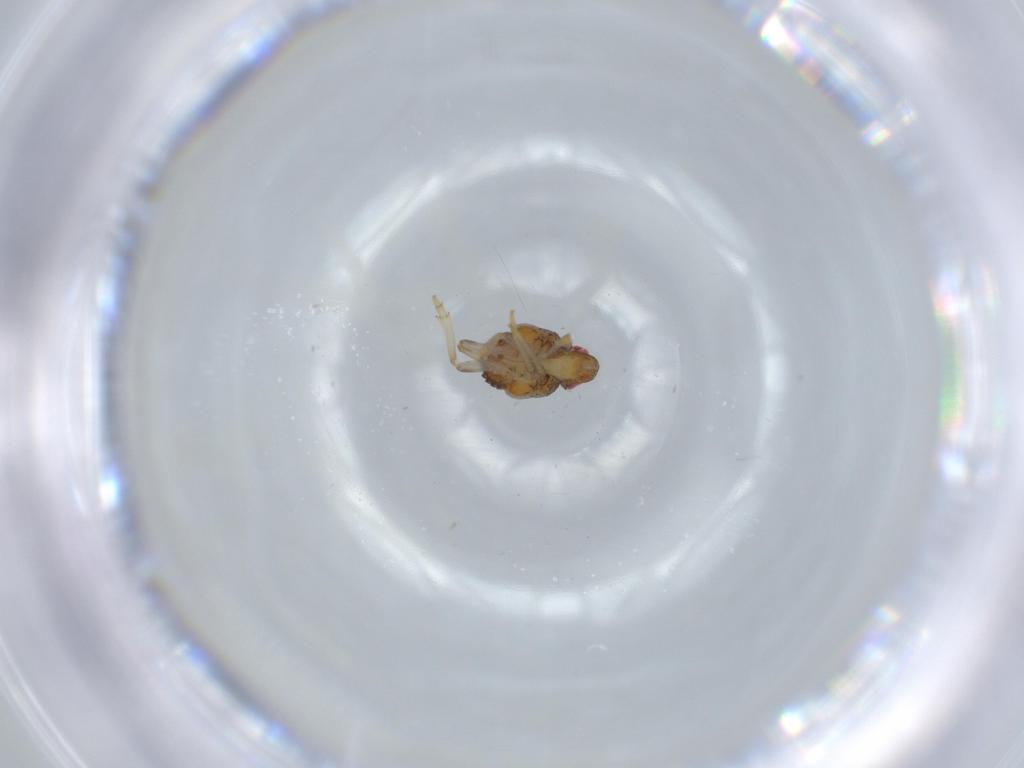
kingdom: Animalia
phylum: Arthropoda
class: Insecta
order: Hemiptera
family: Issidae
